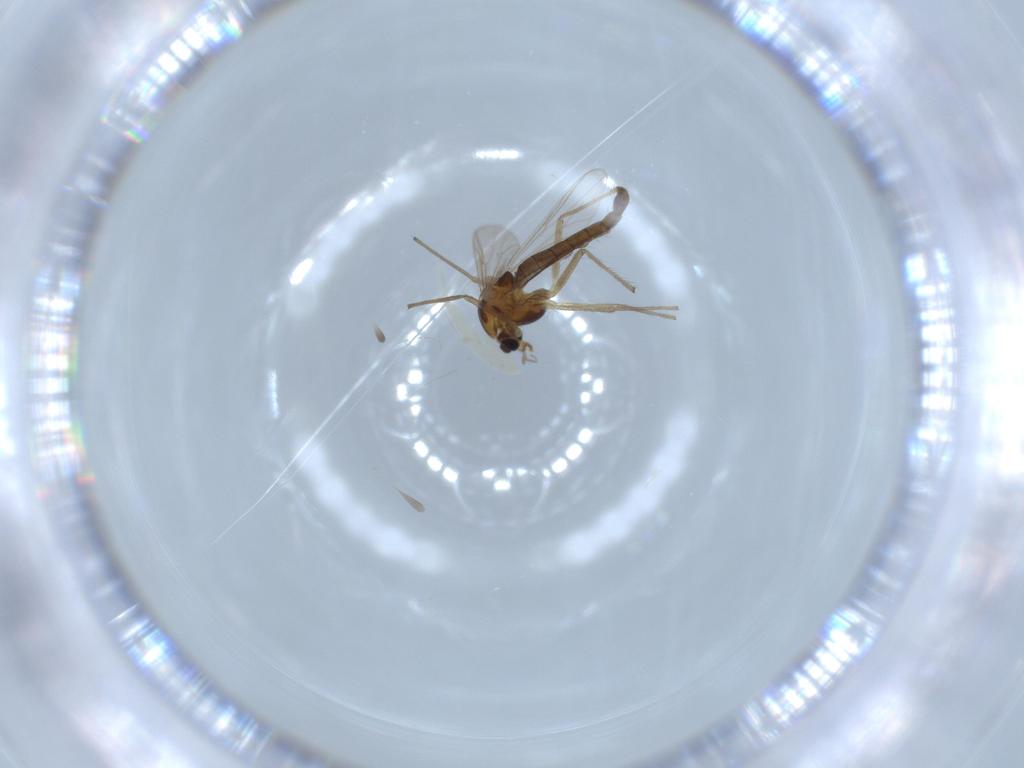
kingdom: Animalia
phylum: Arthropoda
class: Insecta
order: Diptera
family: Chironomidae
